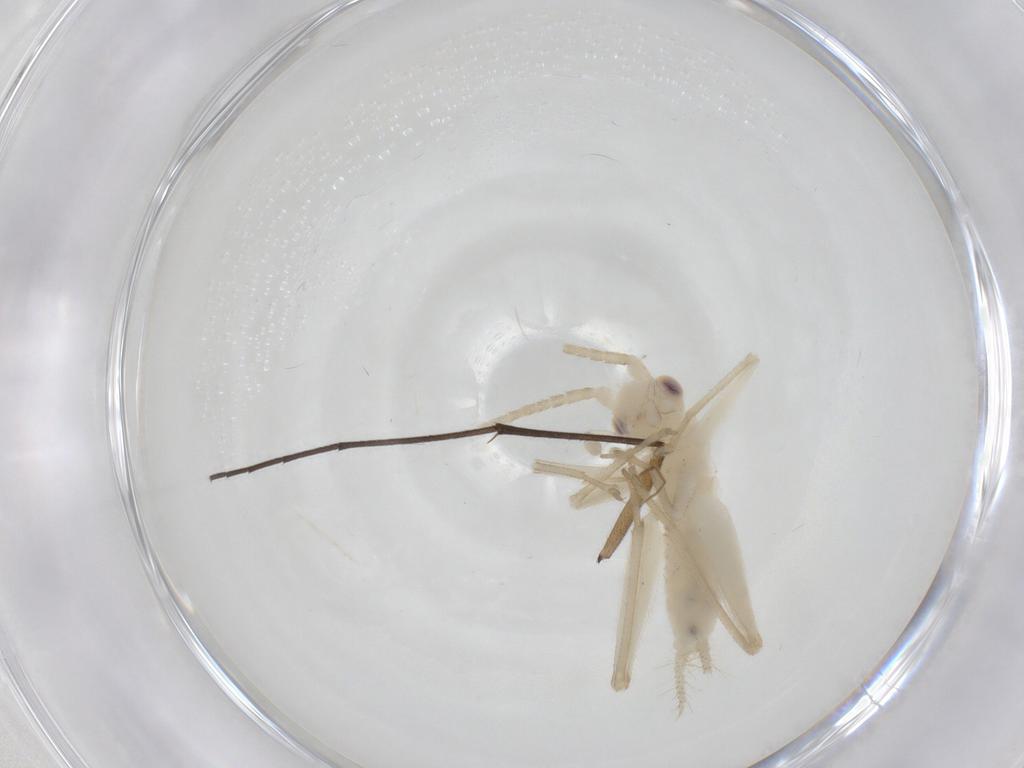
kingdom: Animalia
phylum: Arthropoda
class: Insecta
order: Orthoptera
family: Trigonidiidae
